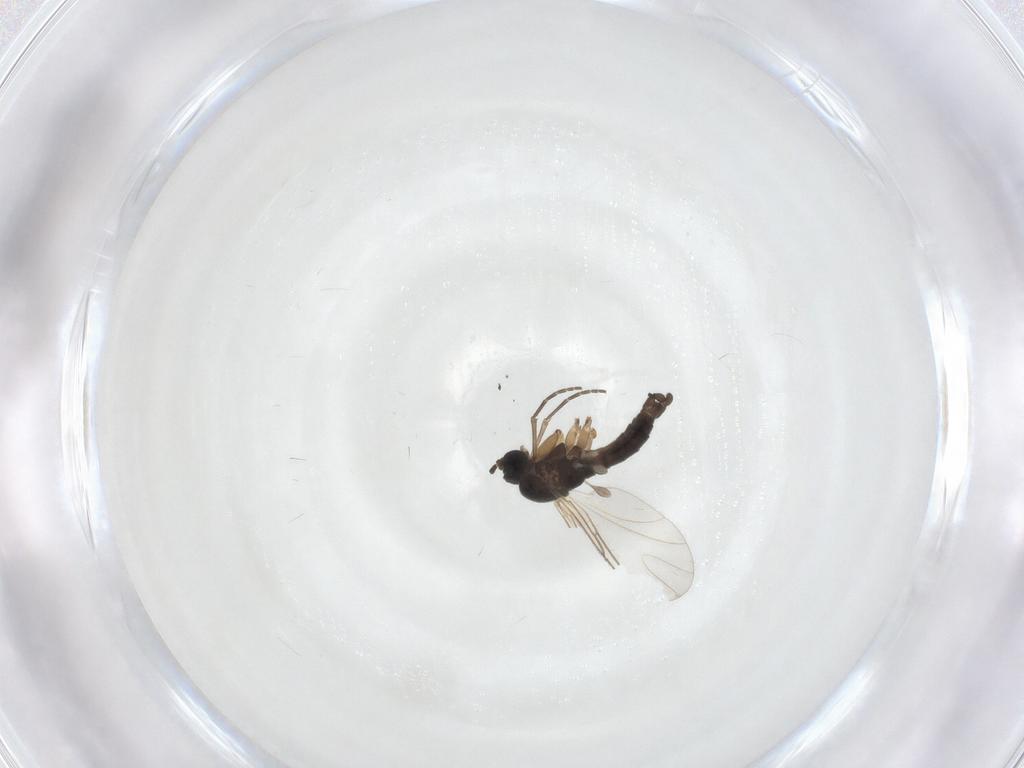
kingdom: Animalia
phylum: Arthropoda
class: Insecta
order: Diptera
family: Sciaridae
